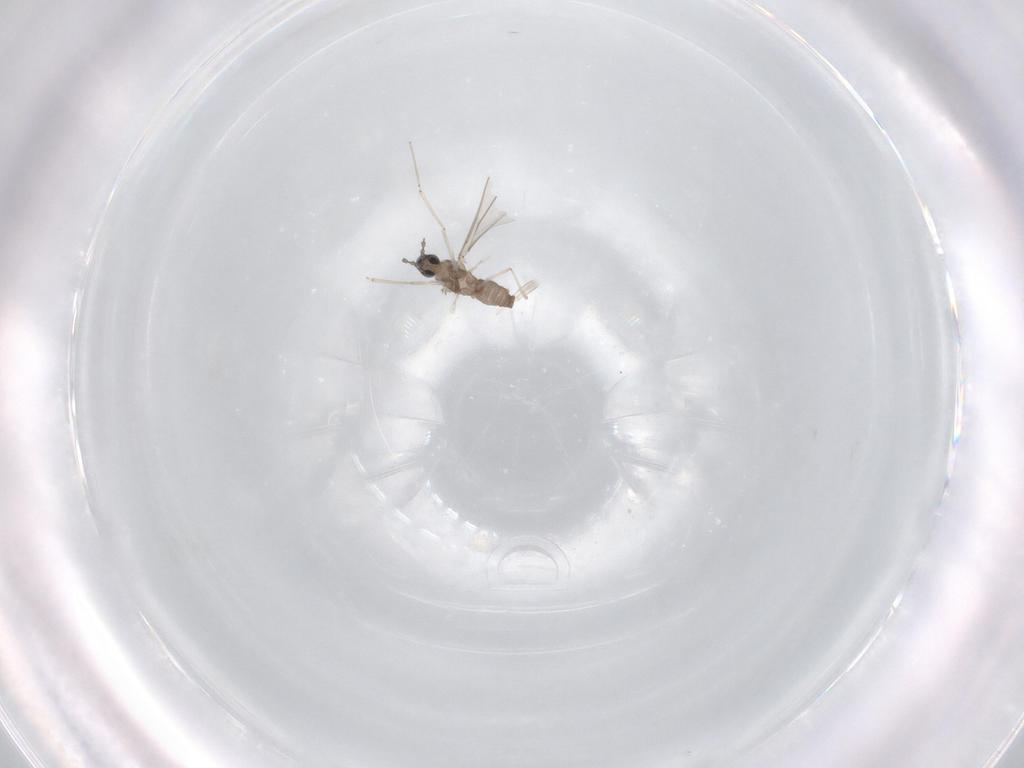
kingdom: Animalia
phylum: Arthropoda
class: Insecta
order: Diptera
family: Cecidomyiidae
